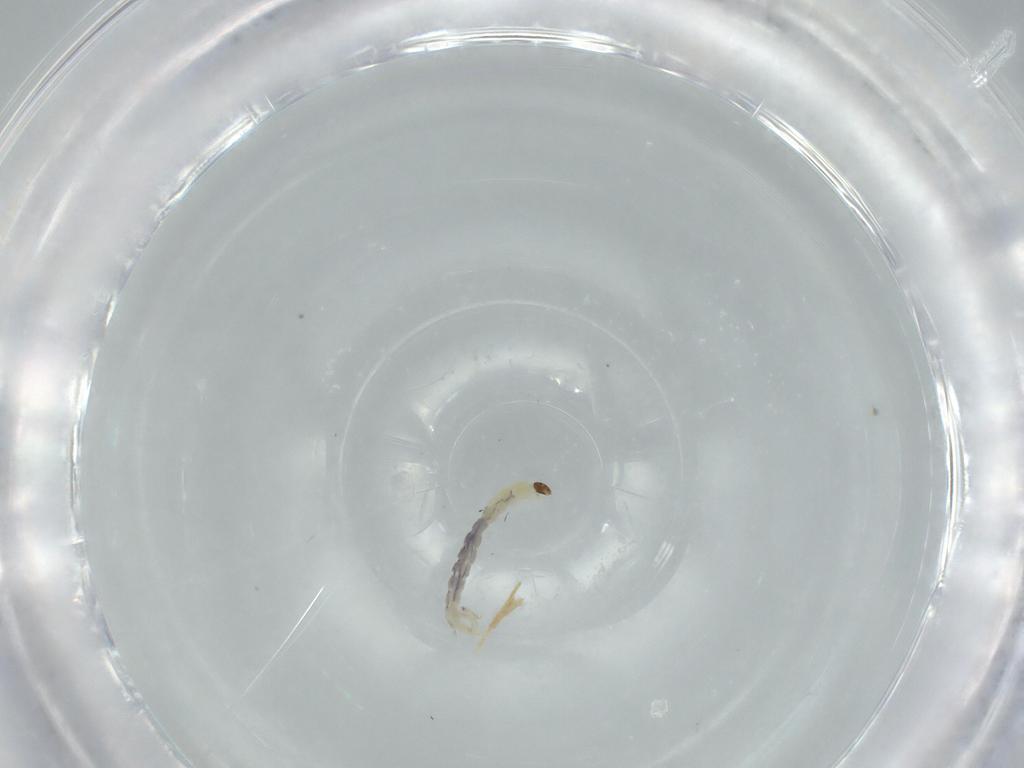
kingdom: Animalia
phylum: Arthropoda
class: Insecta
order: Diptera
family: Chironomidae
